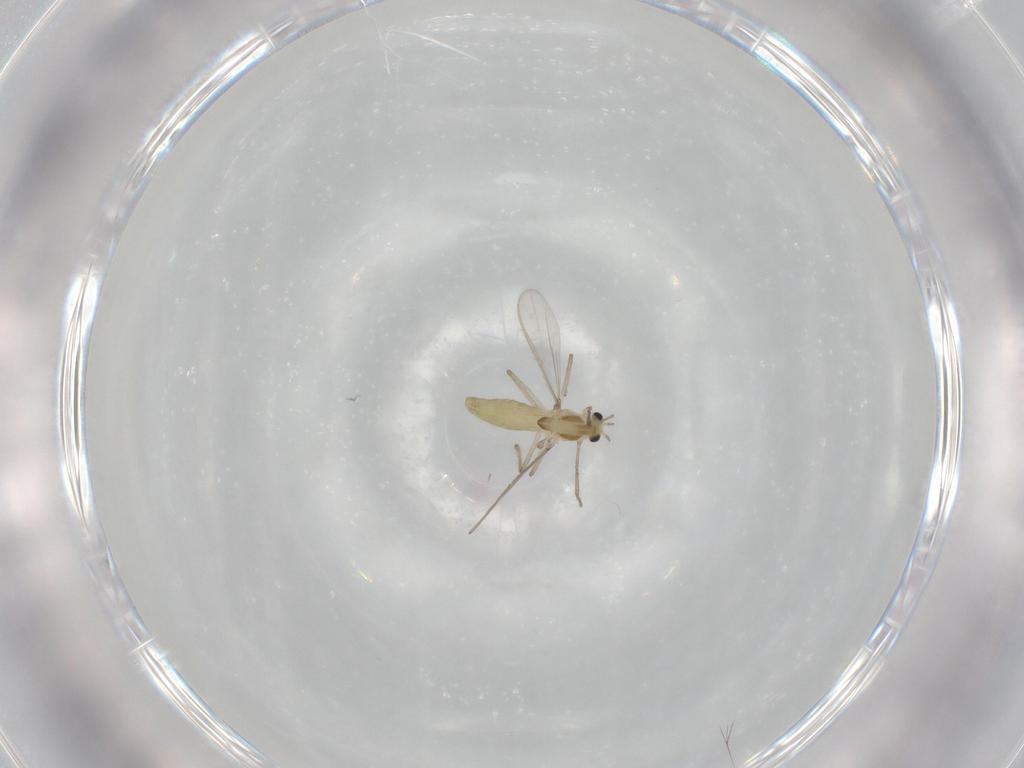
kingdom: Animalia
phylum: Arthropoda
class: Insecta
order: Diptera
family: Chironomidae
